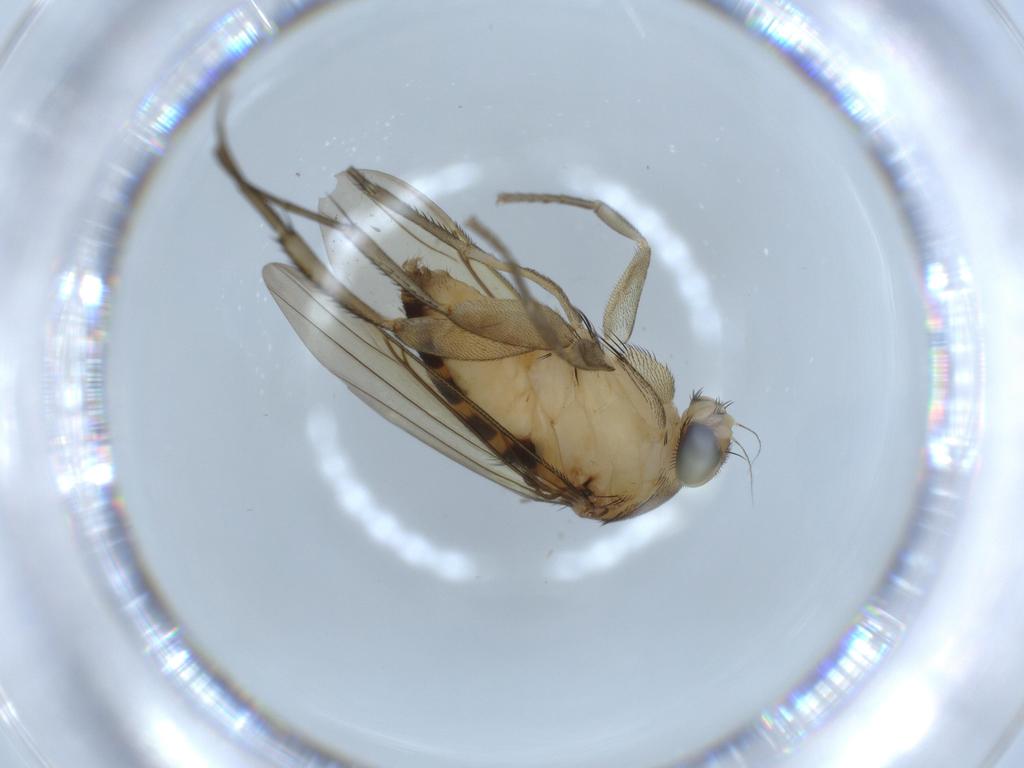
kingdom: Animalia
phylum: Arthropoda
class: Insecta
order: Diptera
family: Phoridae
